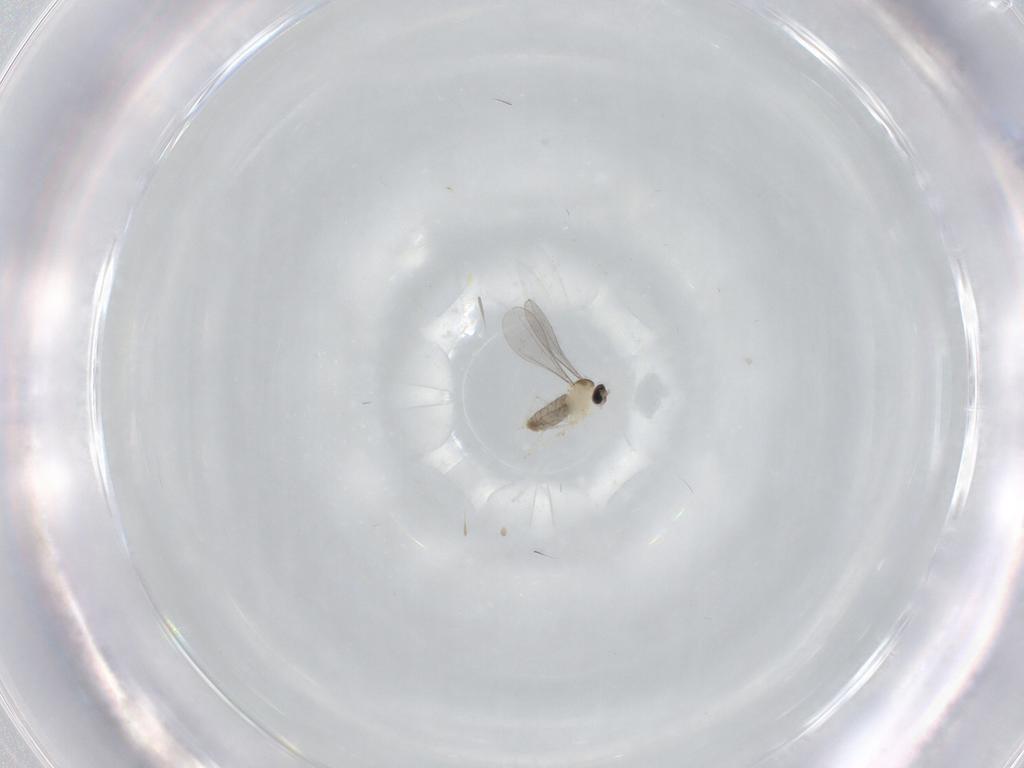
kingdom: Animalia
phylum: Arthropoda
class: Insecta
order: Diptera
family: Cecidomyiidae
